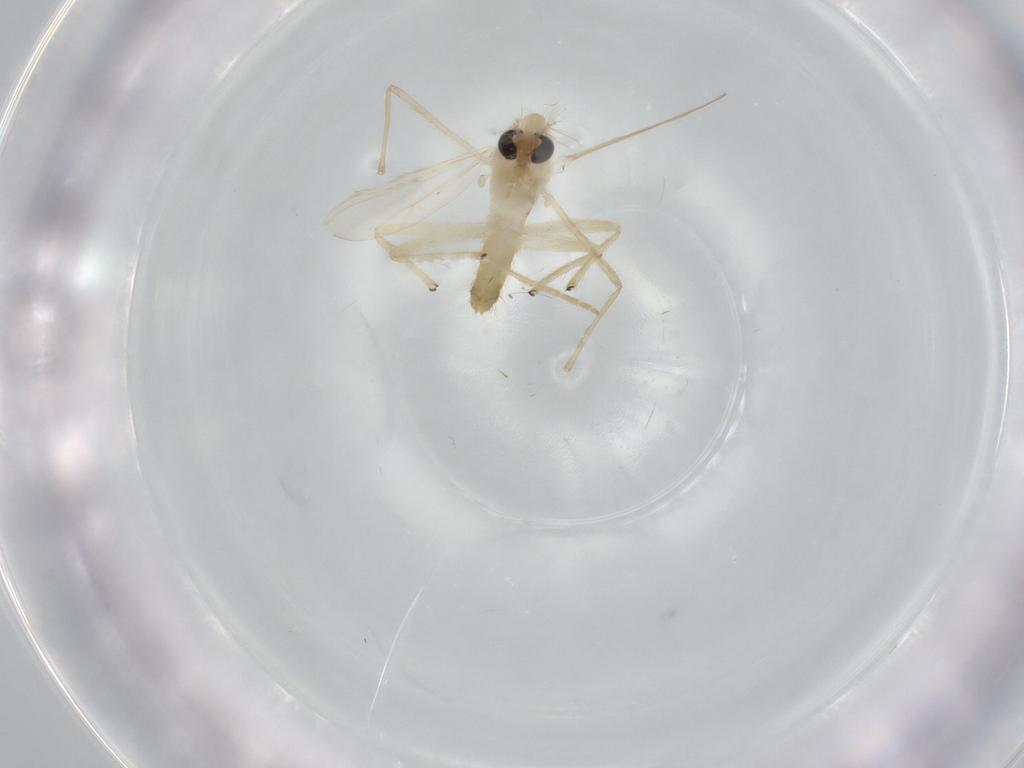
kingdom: Animalia
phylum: Arthropoda
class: Insecta
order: Diptera
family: Chironomidae
